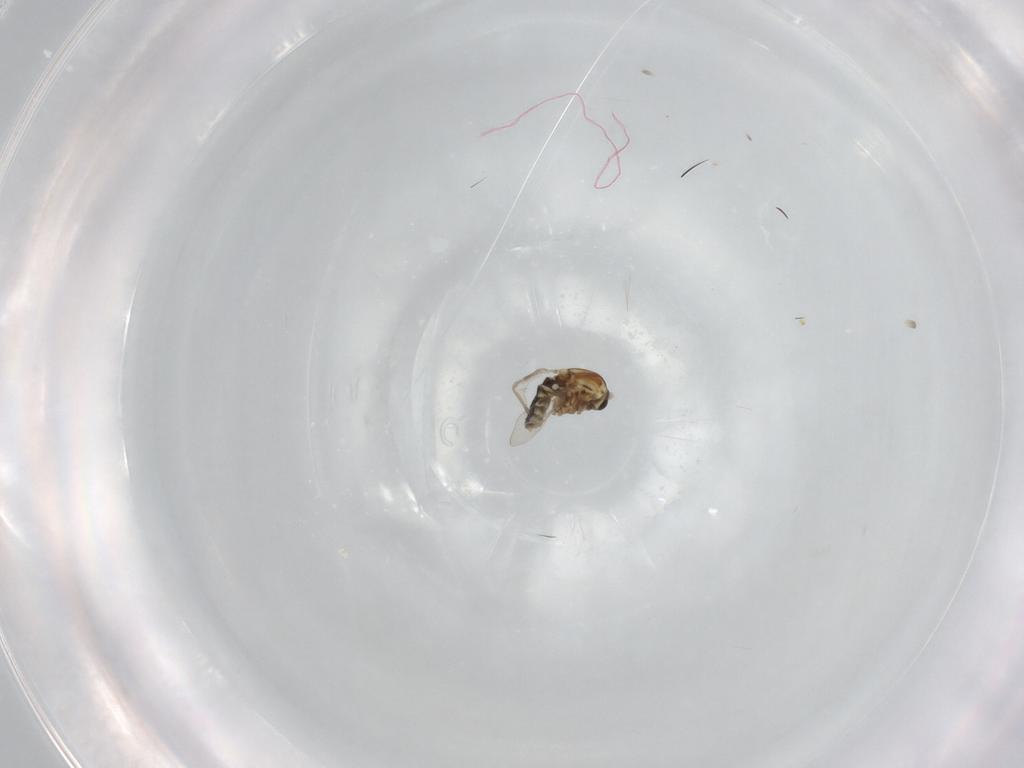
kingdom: Animalia
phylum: Arthropoda
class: Insecta
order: Diptera
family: Ceratopogonidae
